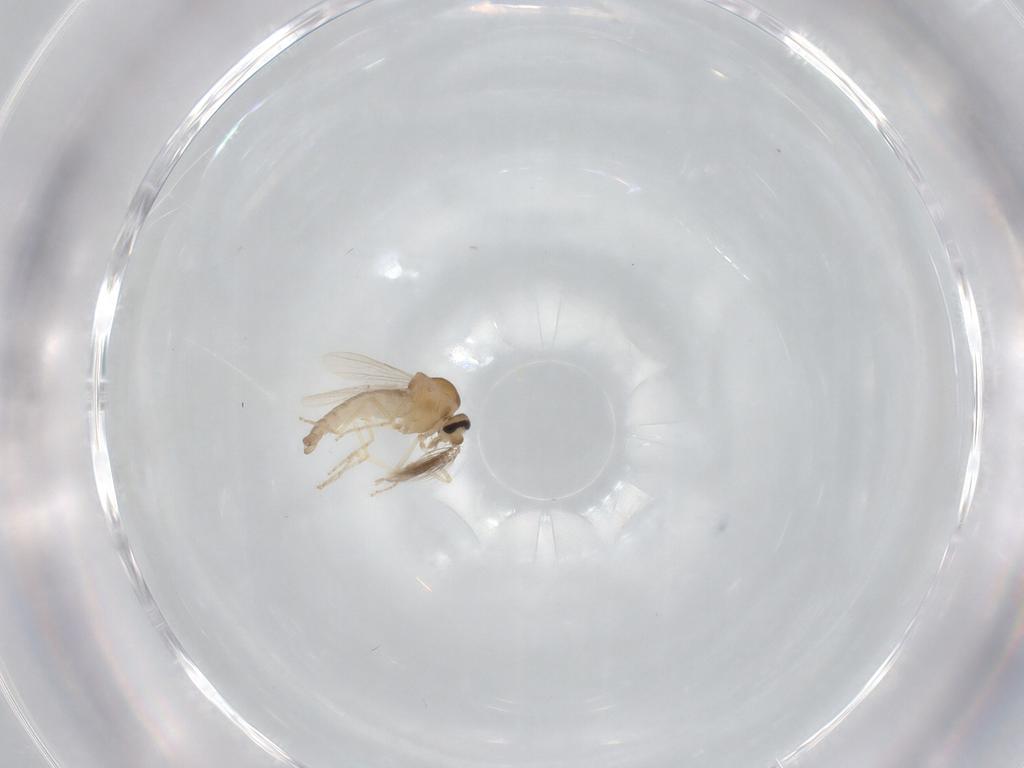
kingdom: Animalia
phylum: Arthropoda
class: Insecta
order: Diptera
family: Ceratopogonidae
